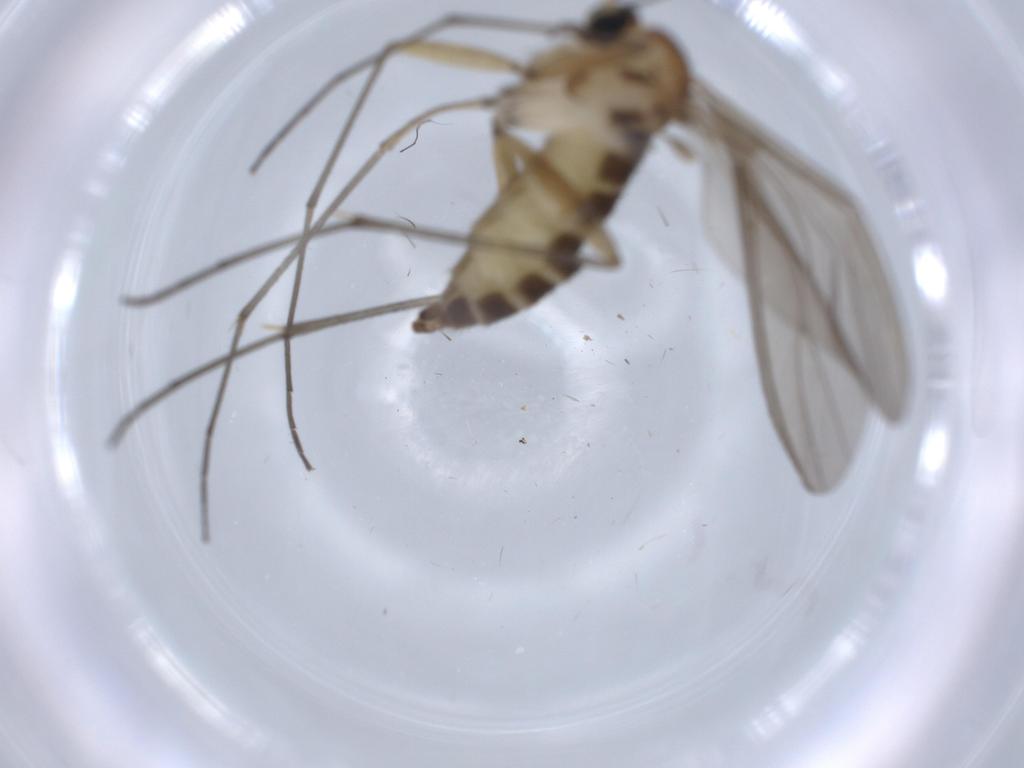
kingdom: Animalia
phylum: Arthropoda
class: Insecta
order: Diptera
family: Sciaridae
